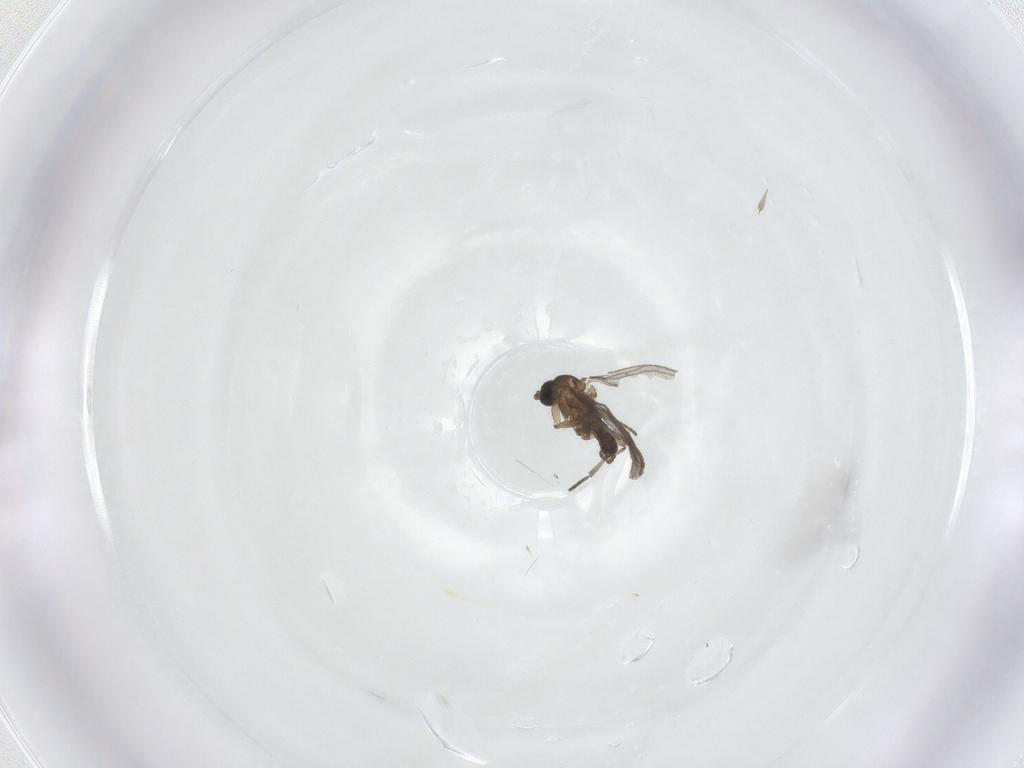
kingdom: Animalia
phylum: Arthropoda
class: Insecta
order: Diptera
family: Sciaridae
